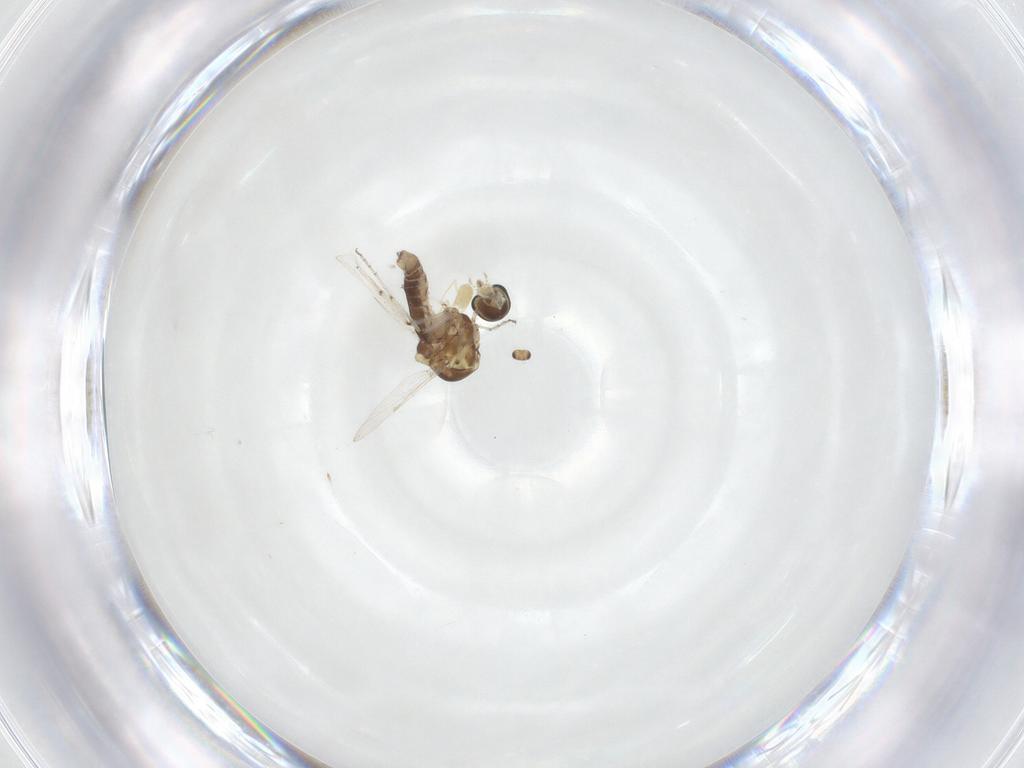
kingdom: Animalia
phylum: Arthropoda
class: Insecta
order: Diptera
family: Ceratopogonidae
